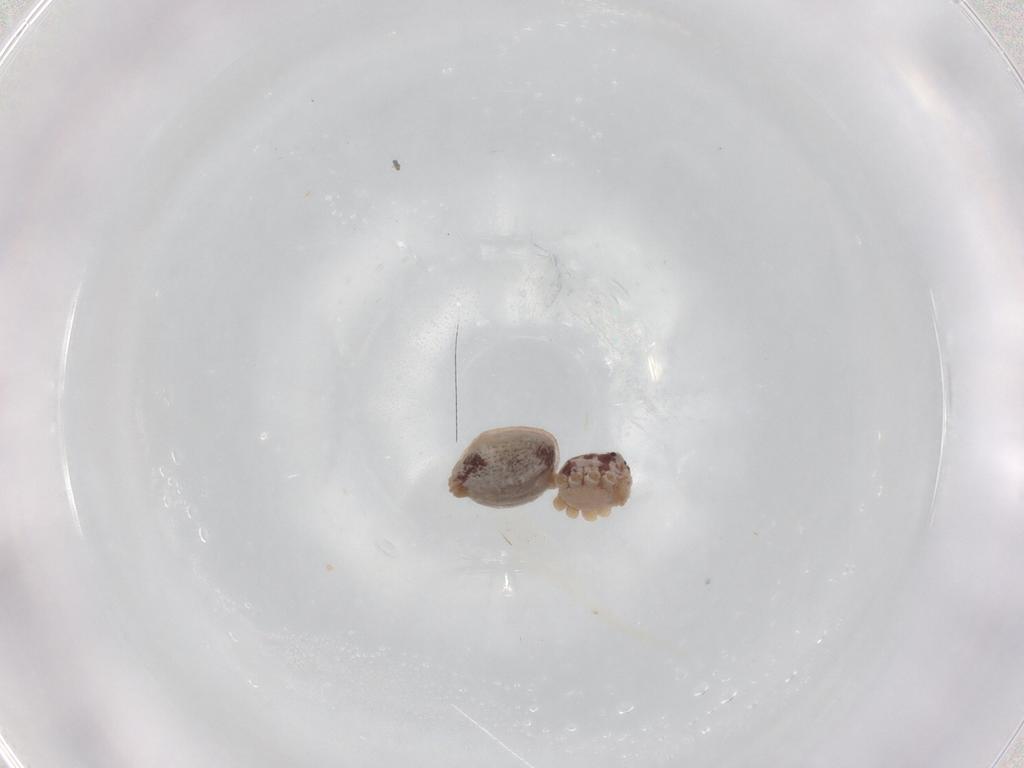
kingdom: Animalia
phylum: Arthropoda
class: Arachnida
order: Araneae
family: Philodromidae
